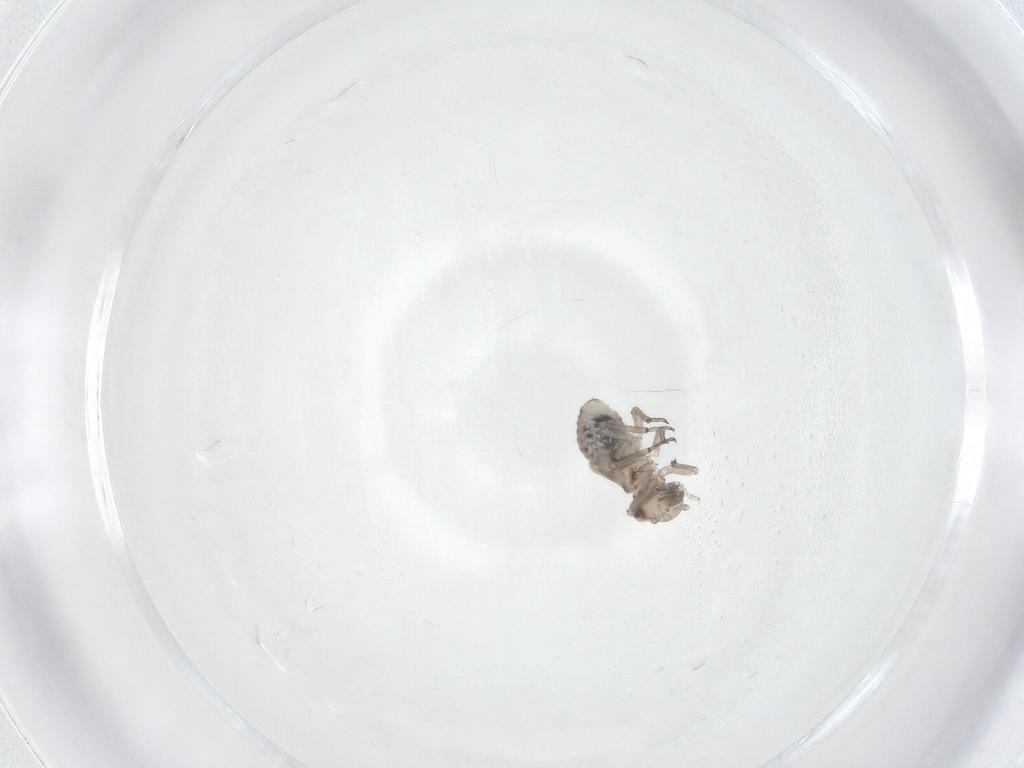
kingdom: Animalia
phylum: Arthropoda
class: Insecta
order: Psocodea
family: Peripsocidae
